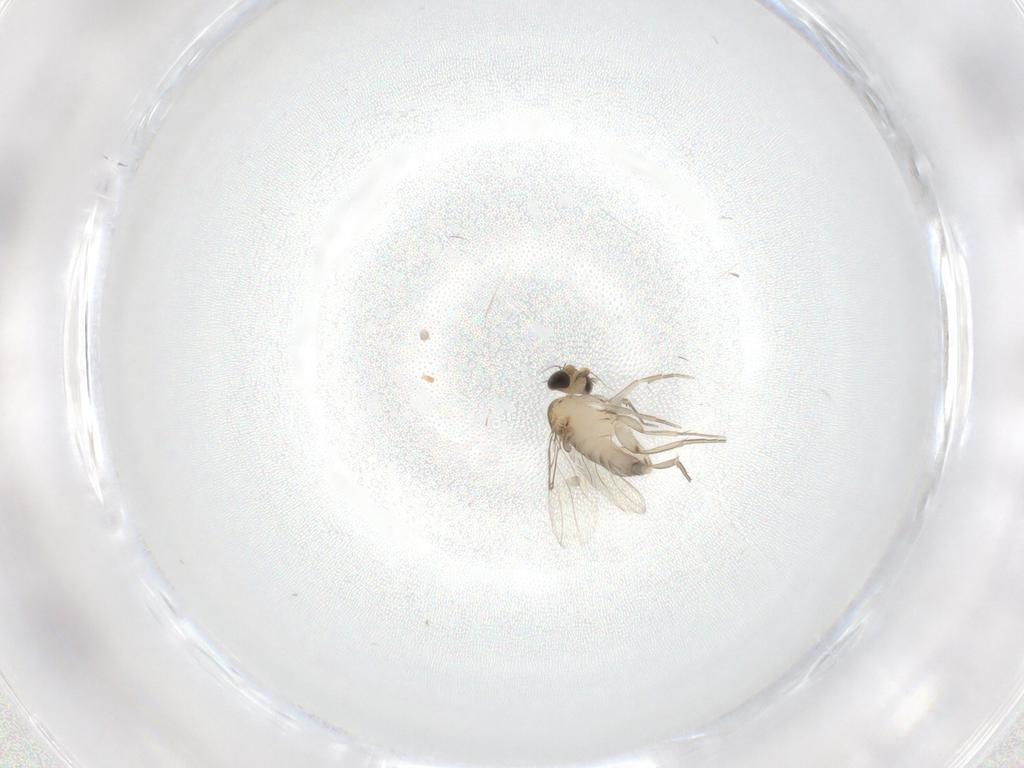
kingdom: Animalia
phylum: Arthropoda
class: Insecta
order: Diptera
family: Phoridae
